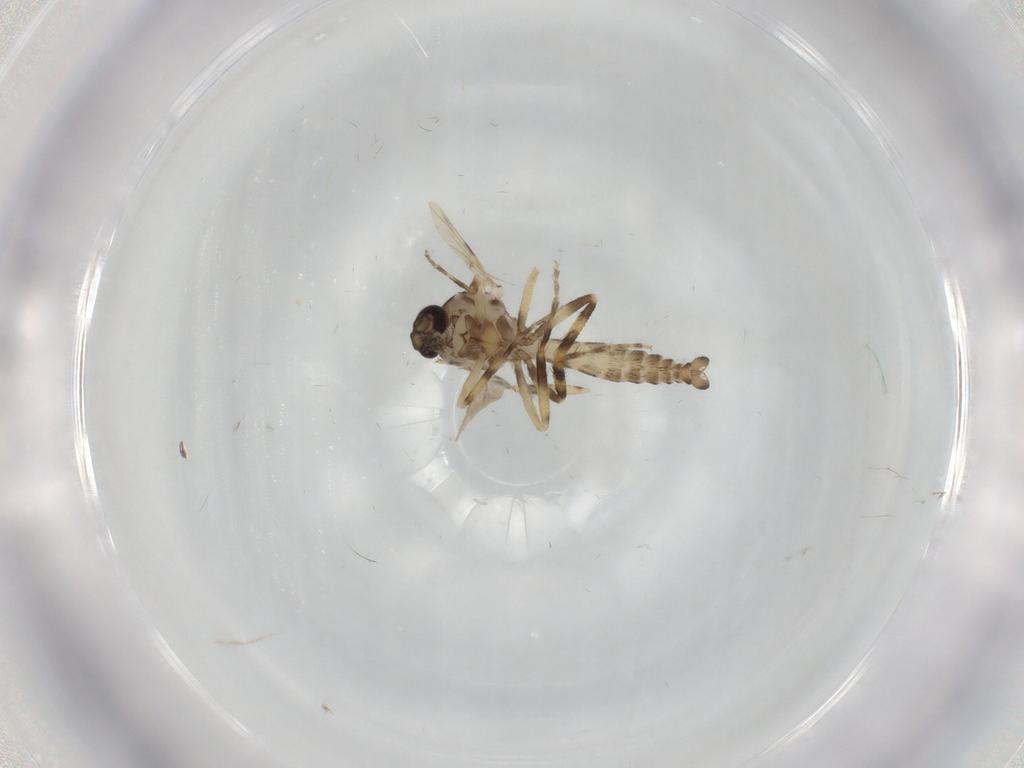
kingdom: Animalia
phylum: Arthropoda
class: Insecta
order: Diptera
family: Ceratopogonidae
